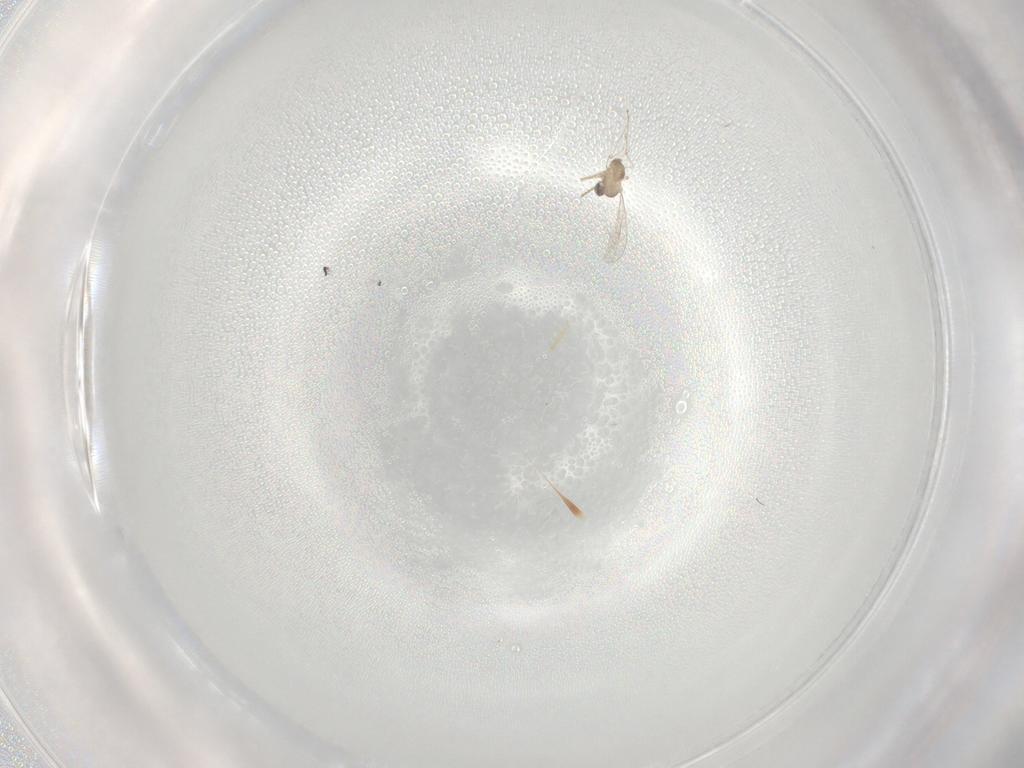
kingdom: Animalia
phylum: Arthropoda
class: Insecta
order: Diptera
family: Cecidomyiidae
